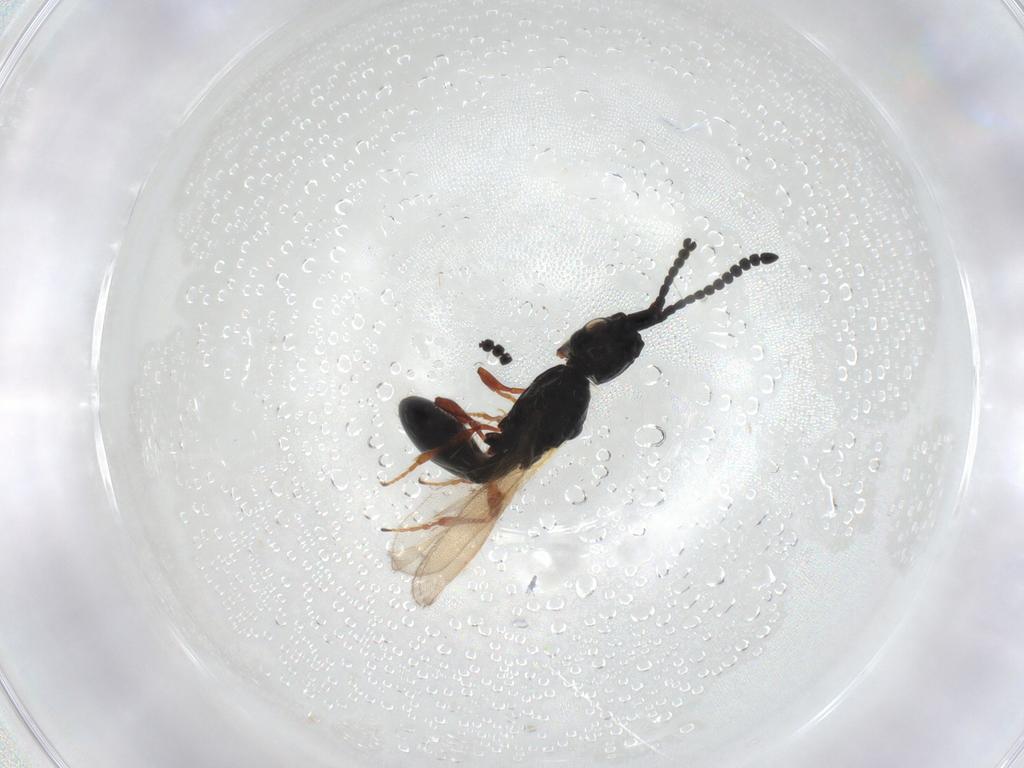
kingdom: Animalia
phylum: Arthropoda
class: Insecta
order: Hymenoptera
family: Diapriidae
